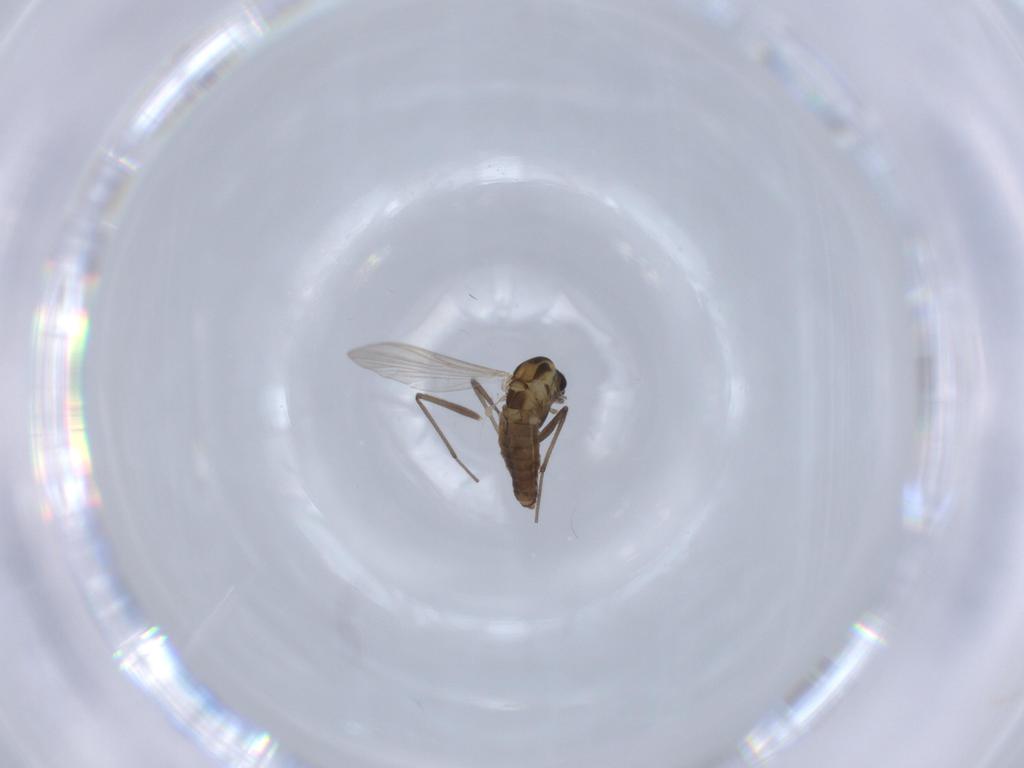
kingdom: Animalia
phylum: Arthropoda
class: Insecta
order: Diptera
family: Chironomidae
